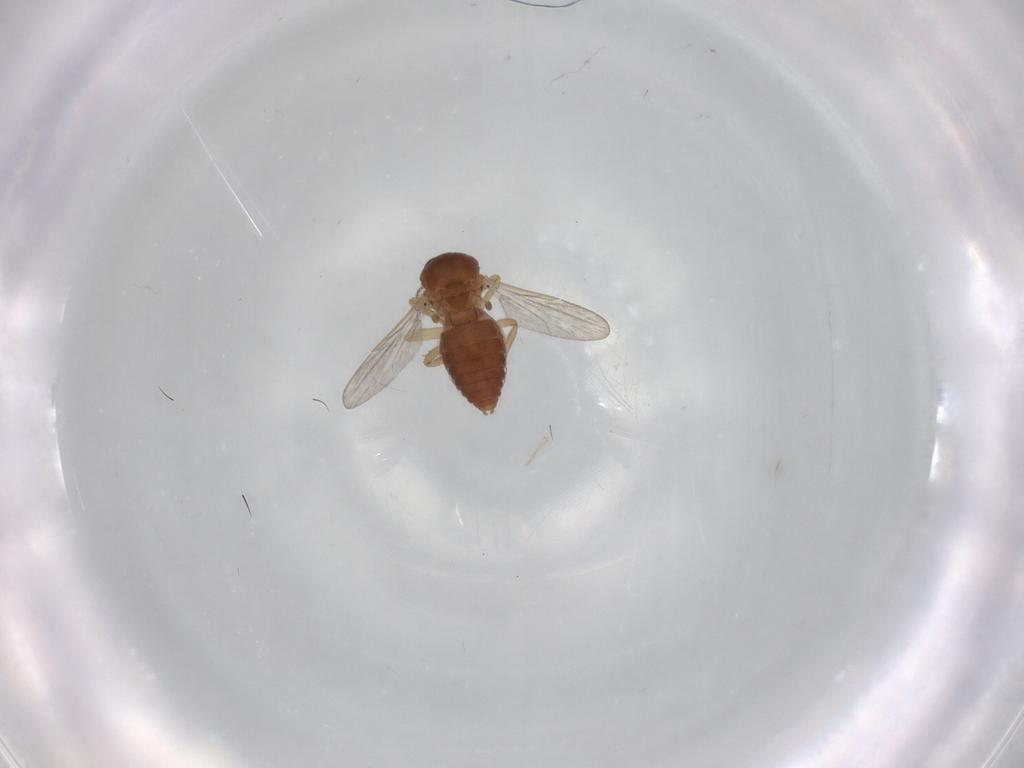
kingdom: Animalia
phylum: Arthropoda
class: Insecta
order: Diptera
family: Ceratopogonidae
